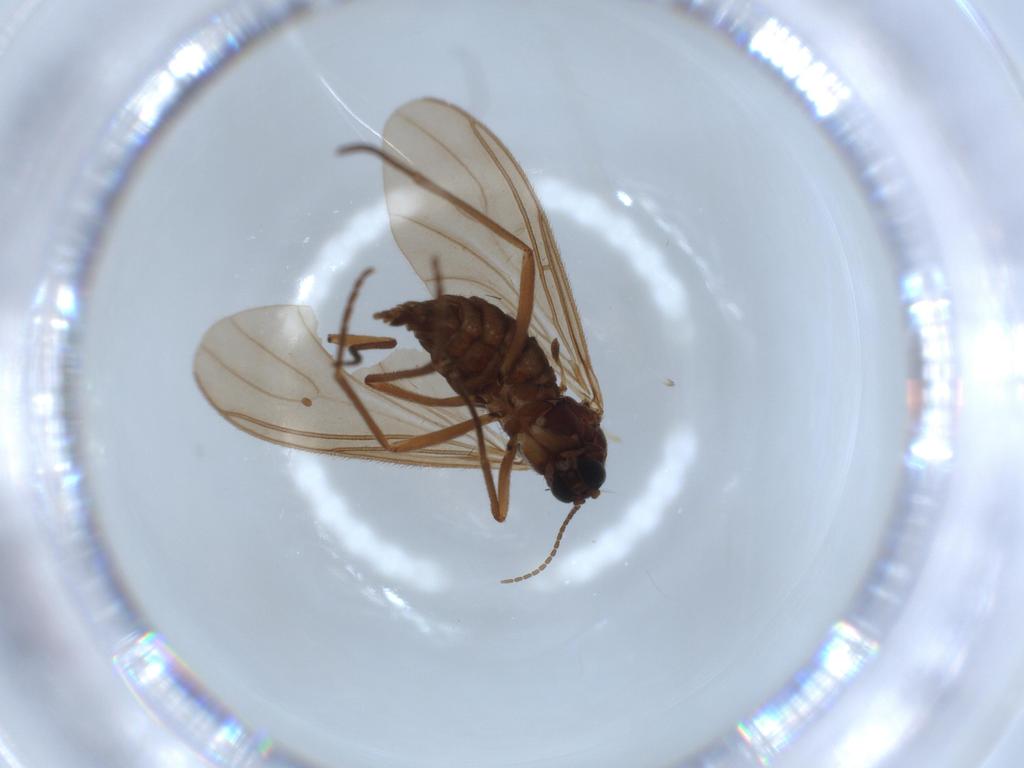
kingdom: Animalia
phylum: Arthropoda
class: Insecta
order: Diptera
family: Sciaridae
